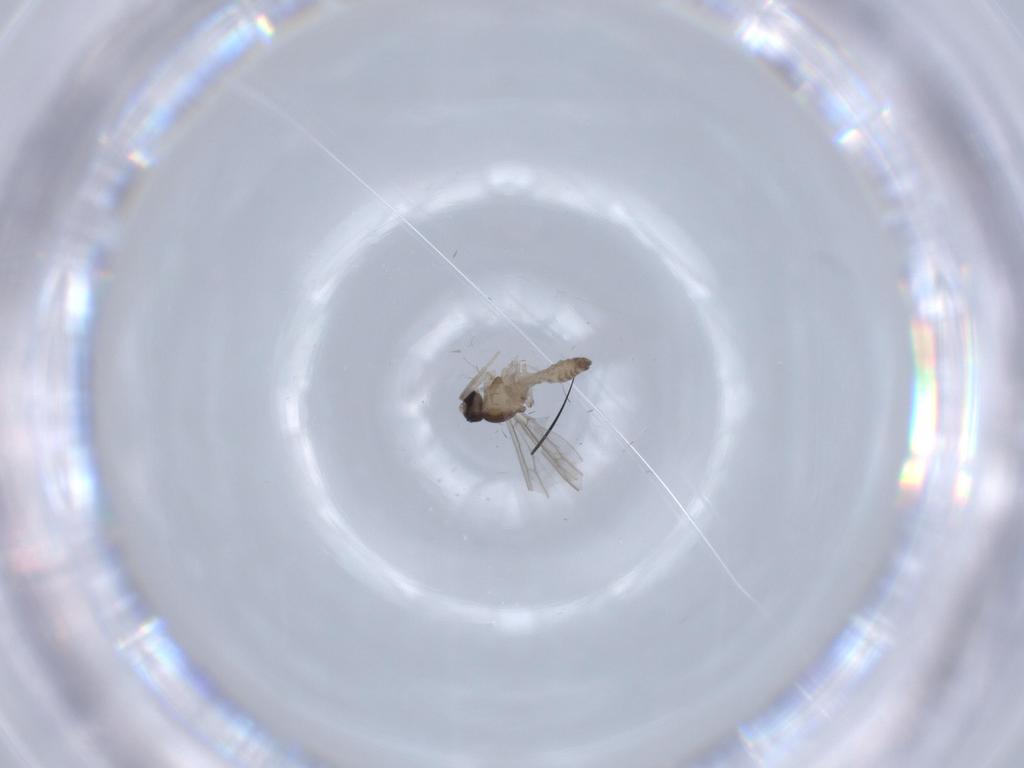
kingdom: Animalia
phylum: Arthropoda
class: Insecta
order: Diptera
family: Cecidomyiidae
